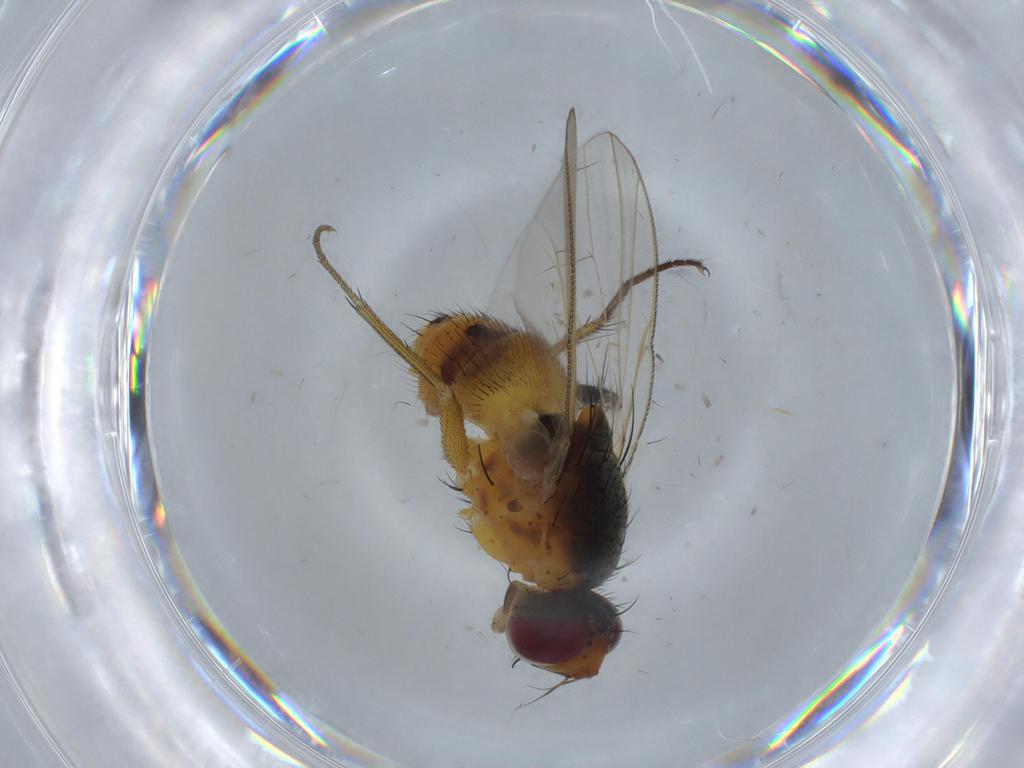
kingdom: Animalia
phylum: Arthropoda
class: Insecta
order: Diptera
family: Muscidae
